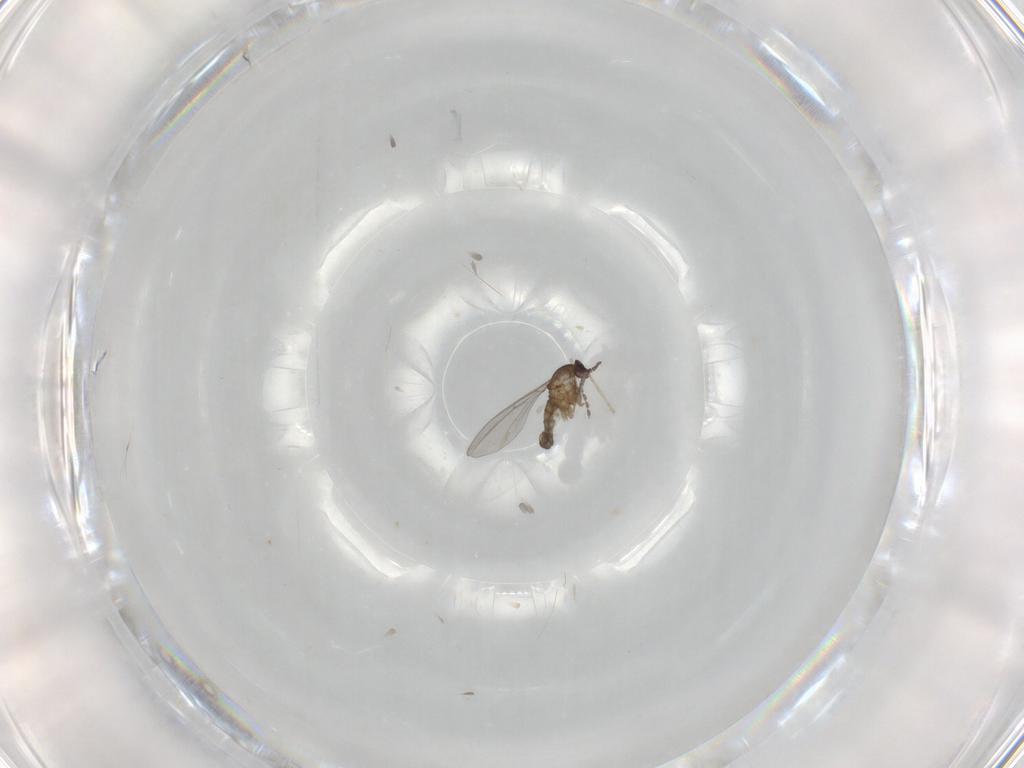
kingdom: Animalia
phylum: Arthropoda
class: Insecta
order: Diptera
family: Cecidomyiidae
